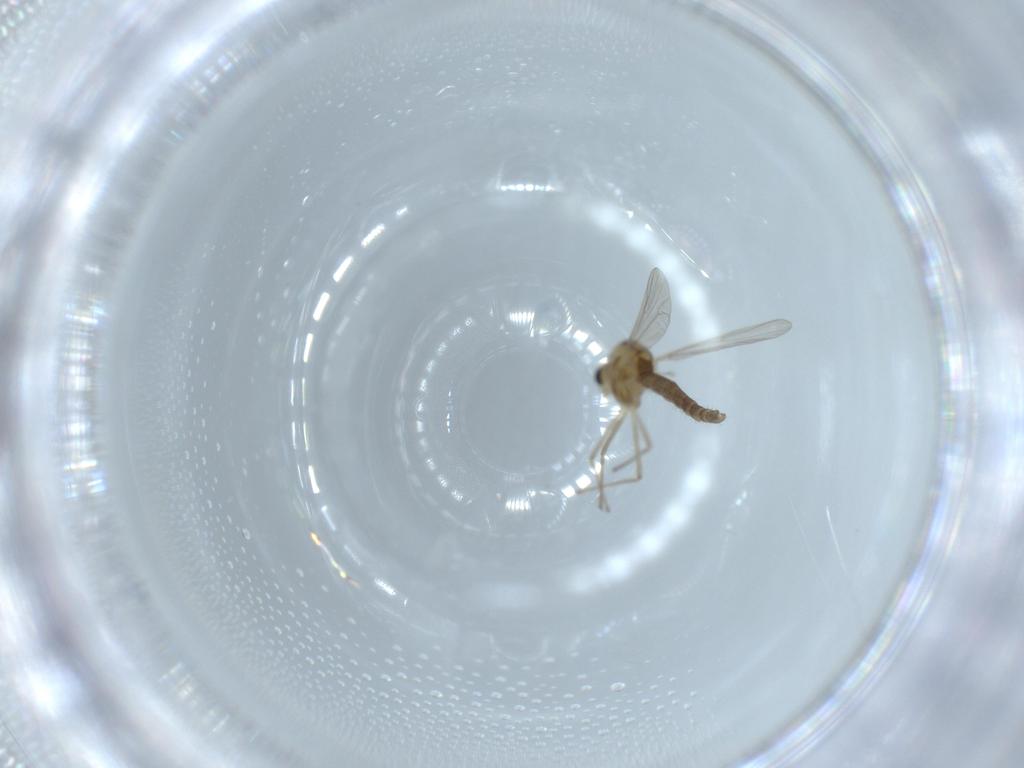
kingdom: Animalia
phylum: Arthropoda
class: Insecta
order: Diptera
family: Chironomidae
